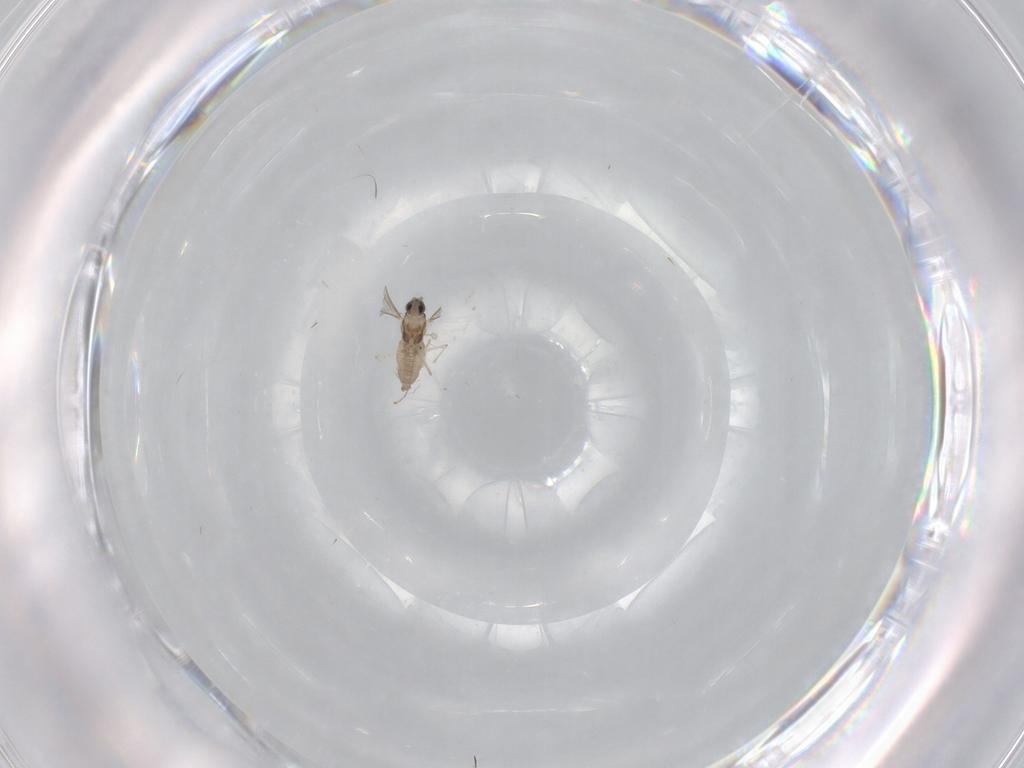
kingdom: Animalia
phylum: Arthropoda
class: Insecta
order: Diptera
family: Cecidomyiidae
